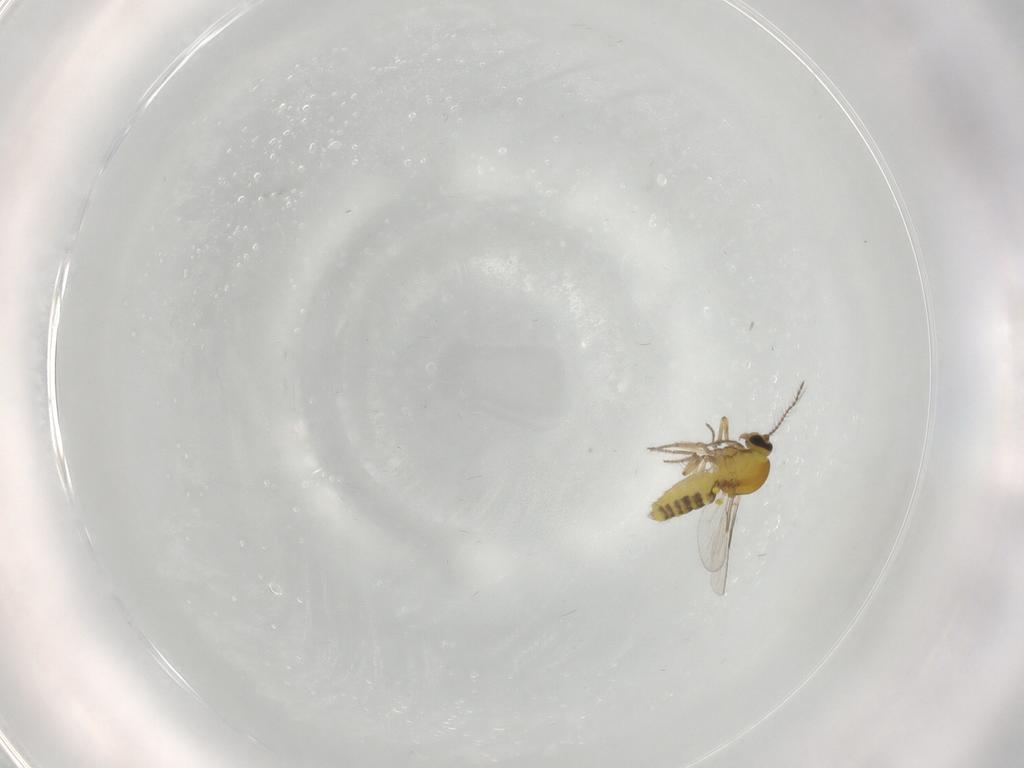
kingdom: Animalia
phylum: Arthropoda
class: Insecta
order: Diptera
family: Ceratopogonidae
